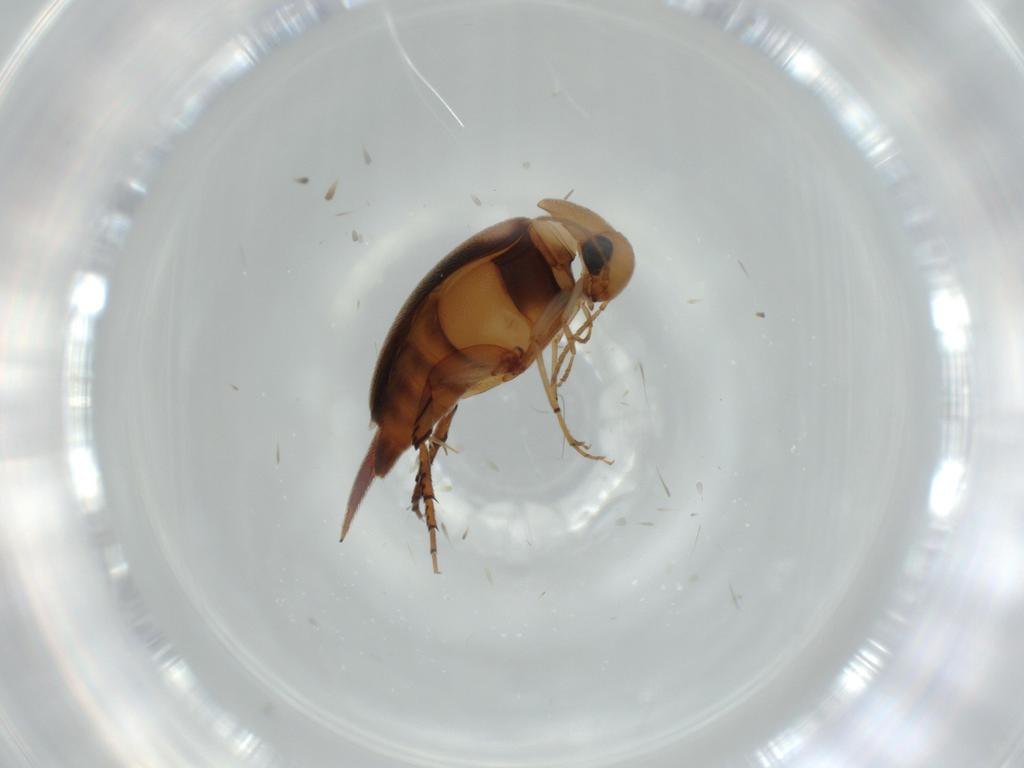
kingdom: Animalia
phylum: Arthropoda
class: Insecta
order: Coleoptera
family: Mordellidae
